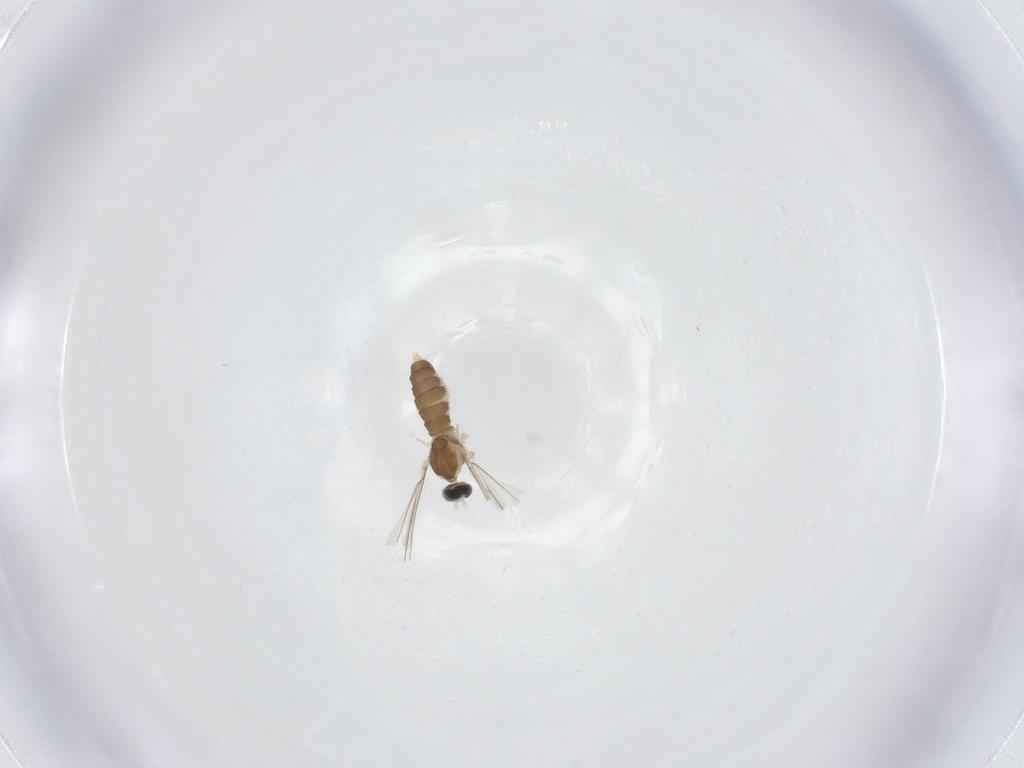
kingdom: Animalia
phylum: Arthropoda
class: Insecta
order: Diptera
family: Cecidomyiidae
